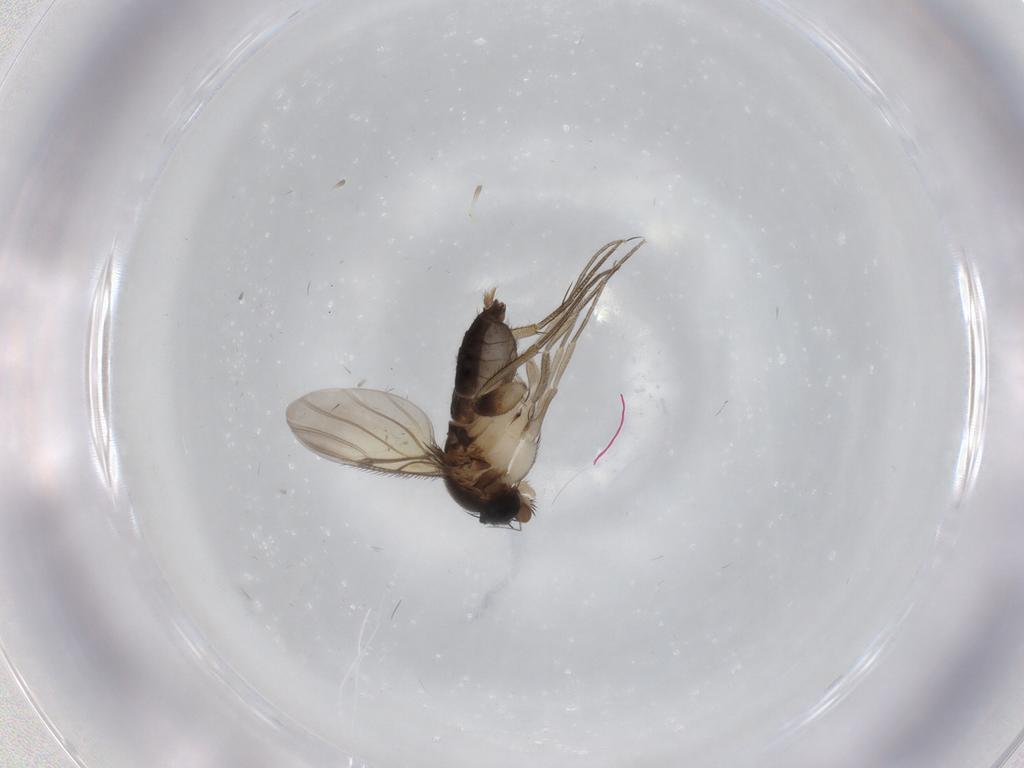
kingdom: Animalia
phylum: Arthropoda
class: Insecta
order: Diptera
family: Phoridae
